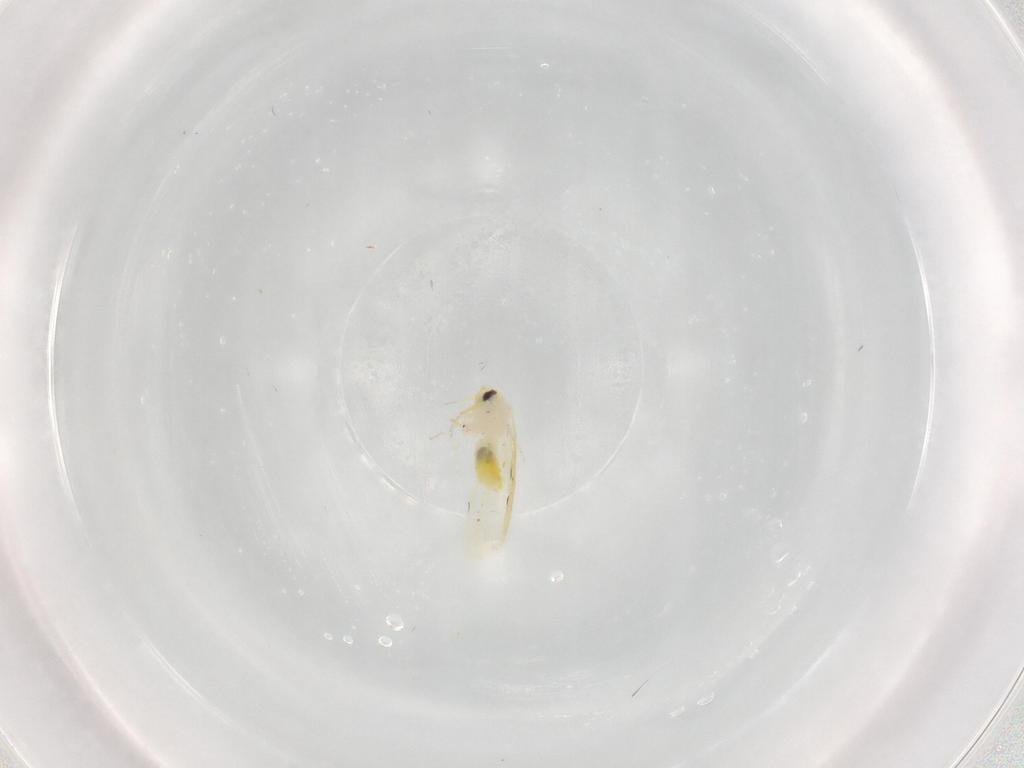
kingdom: Animalia
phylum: Arthropoda
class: Insecta
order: Hemiptera
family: Aleyrodidae
